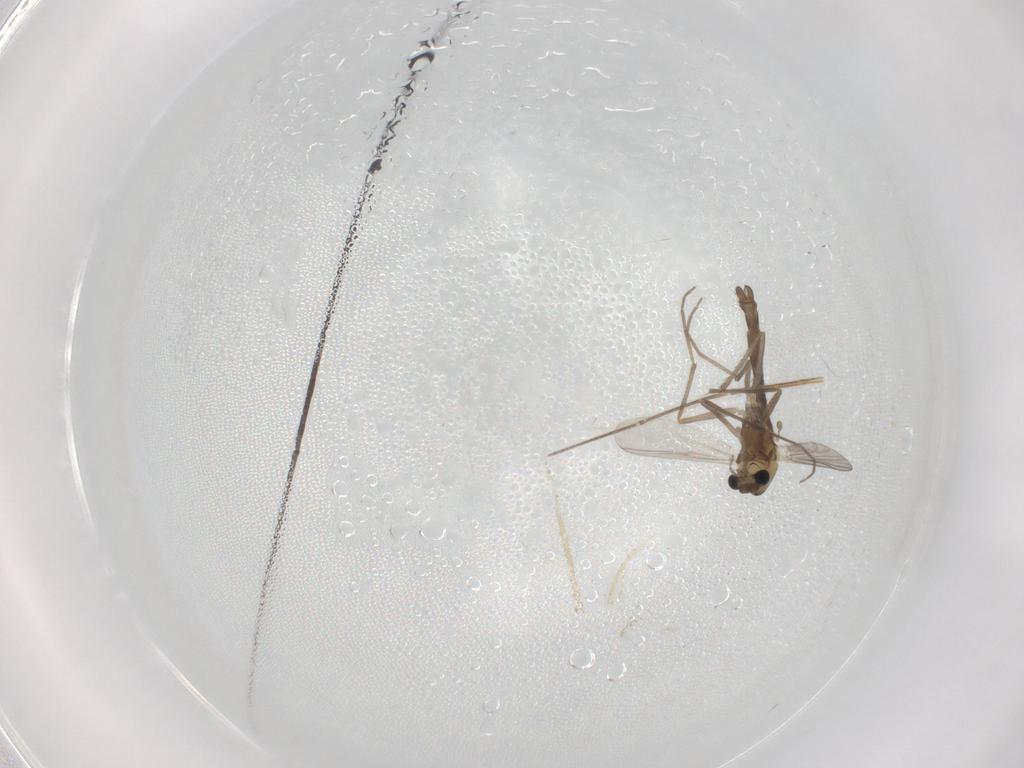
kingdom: Animalia
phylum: Arthropoda
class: Insecta
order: Diptera
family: Chironomidae
